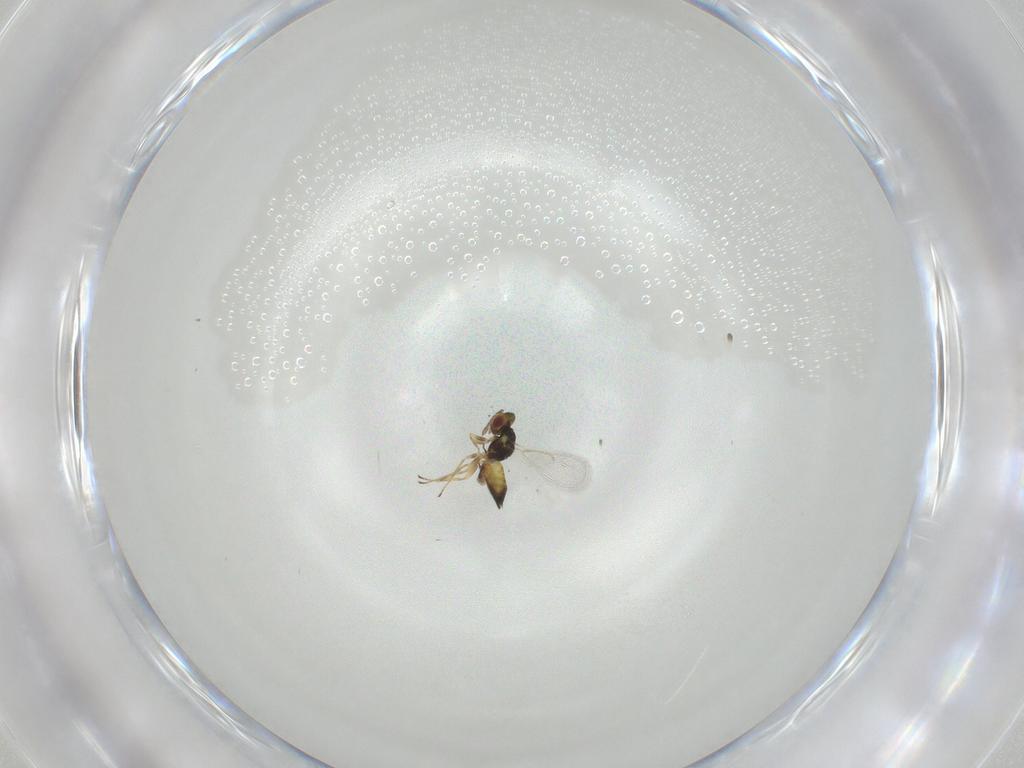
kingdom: Animalia
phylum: Arthropoda
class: Insecta
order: Hymenoptera
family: Eulophidae
